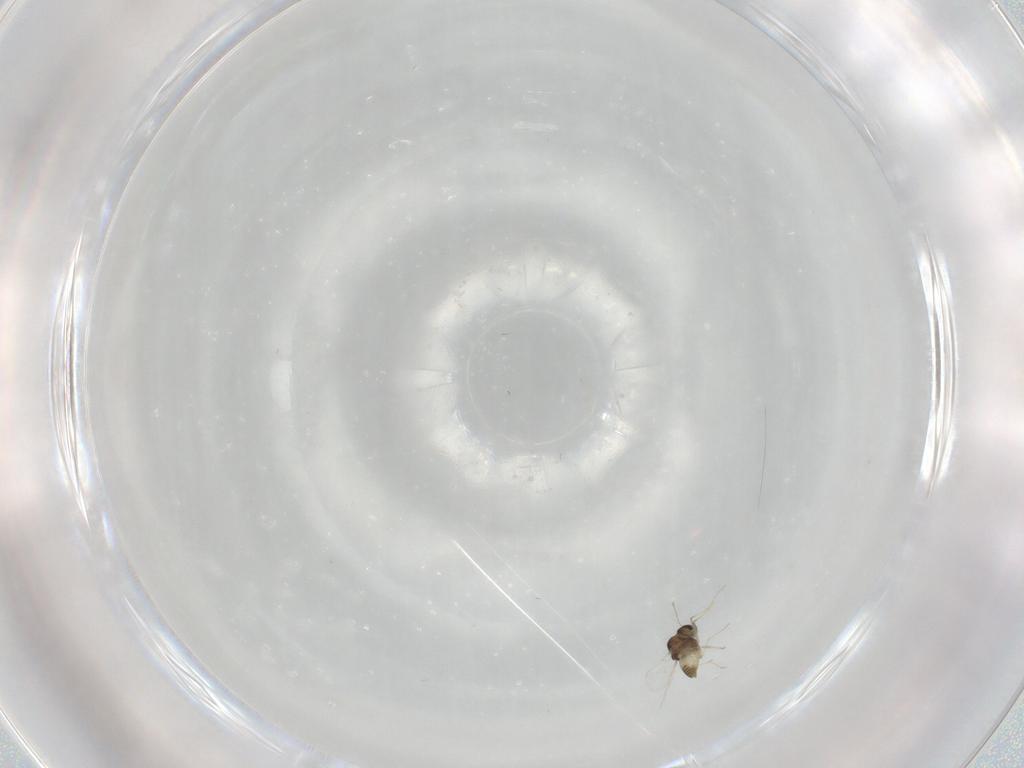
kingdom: Animalia
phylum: Arthropoda
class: Insecta
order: Diptera
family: Chironomidae
